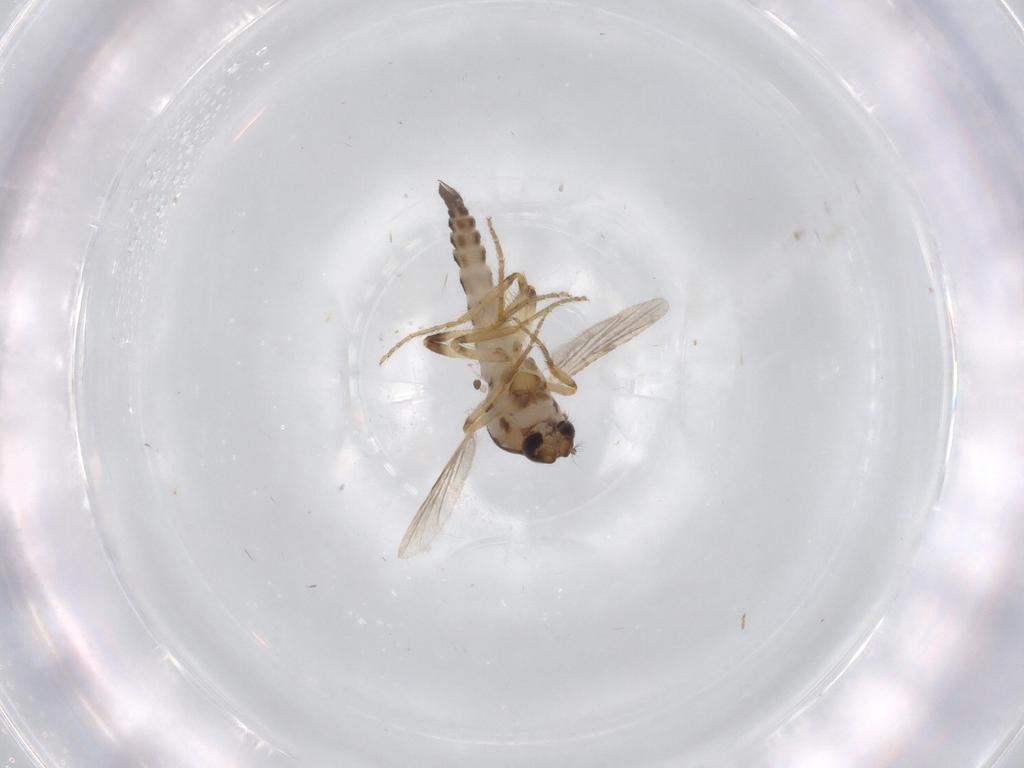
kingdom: Animalia
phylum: Arthropoda
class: Insecta
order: Diptera
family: Ceratopogonidae
